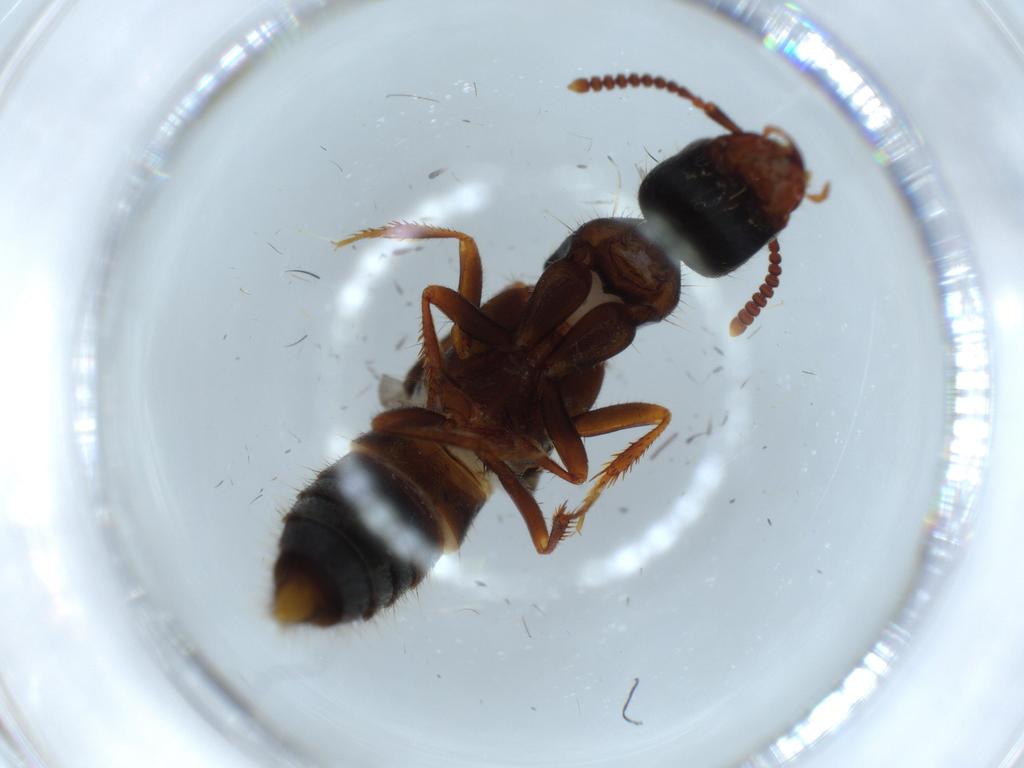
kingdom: Animalia
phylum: Arthropoda
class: Insecta
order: Coleoptera
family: Staphylinidae
